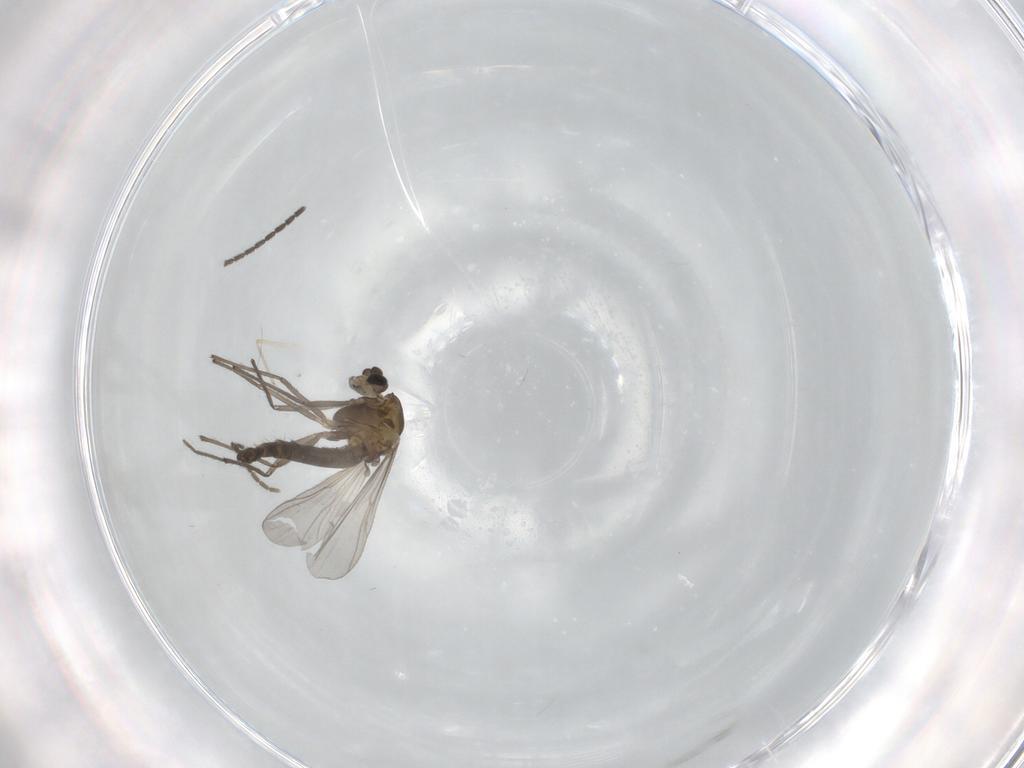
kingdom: Animalia
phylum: Arthropoda
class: Insecta
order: Diptera
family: Chironomidae
